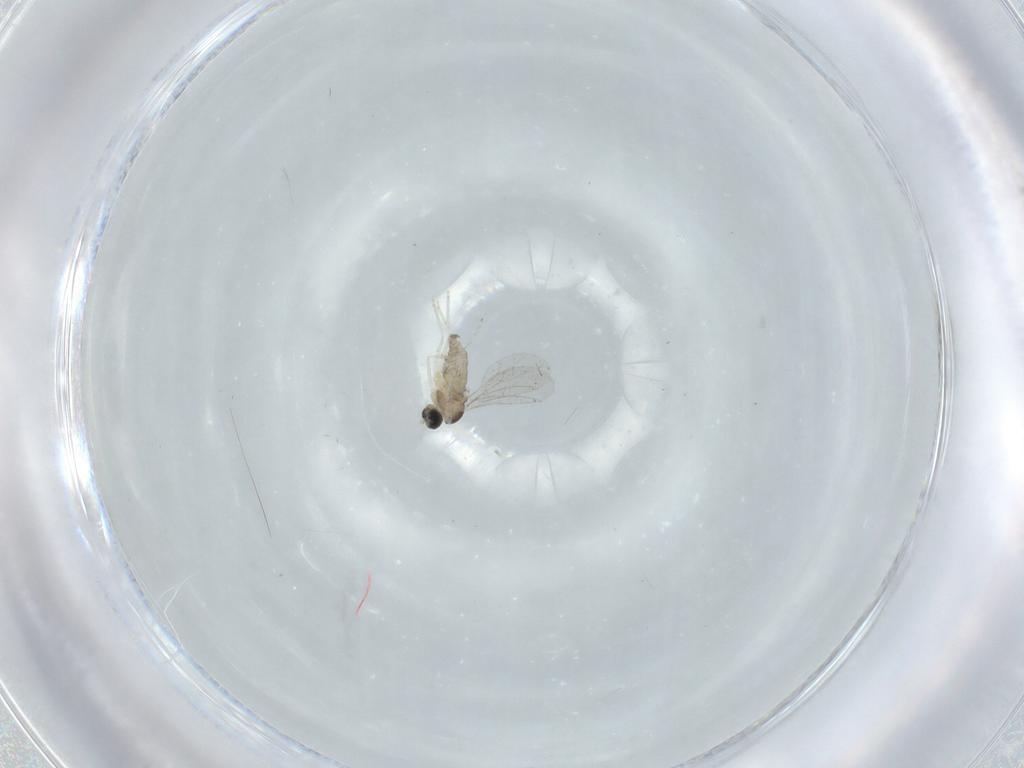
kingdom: Animalia
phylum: Arthropoda
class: Insecta
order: Diptera
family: Cecidomyiidae
